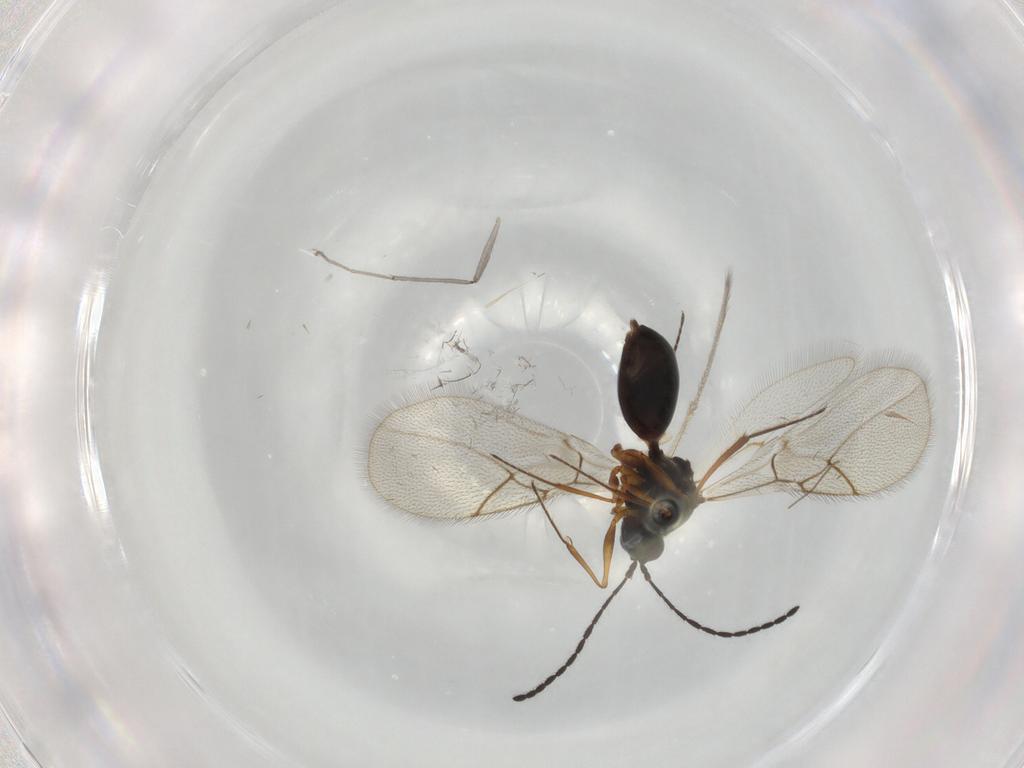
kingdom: Animalia
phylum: Arthropoda
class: Insecta
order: Hymenoptera
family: Figitidae
